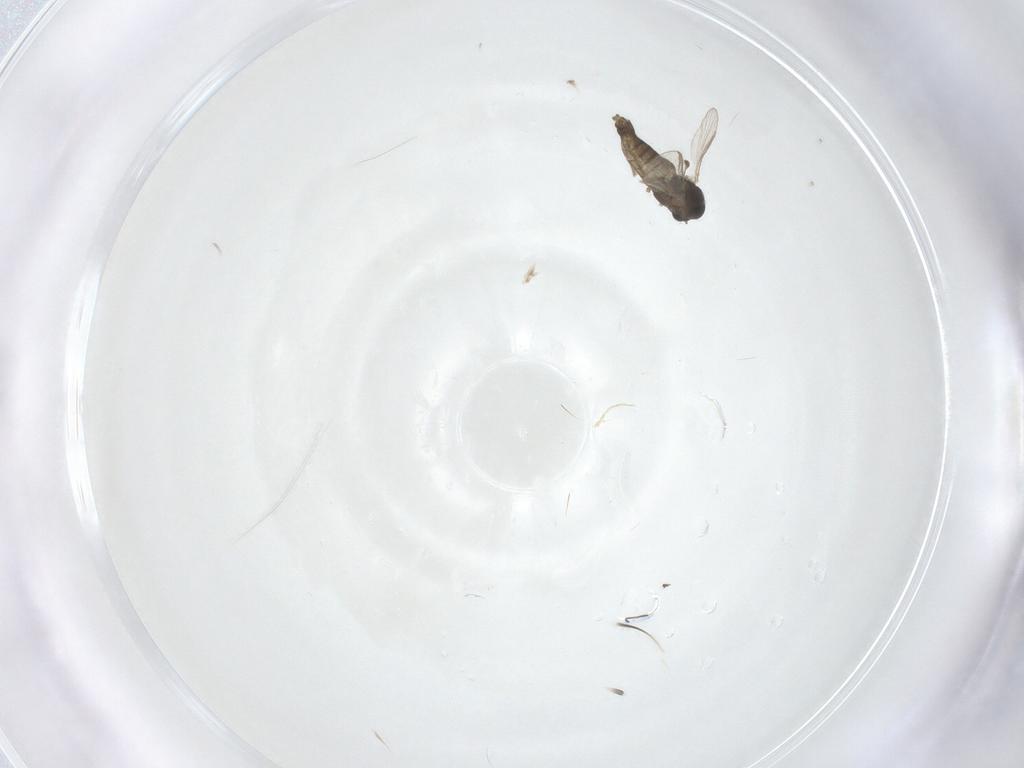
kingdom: Animalia
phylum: Arthropoda
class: Insecta
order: Diptera
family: Chironomidae
